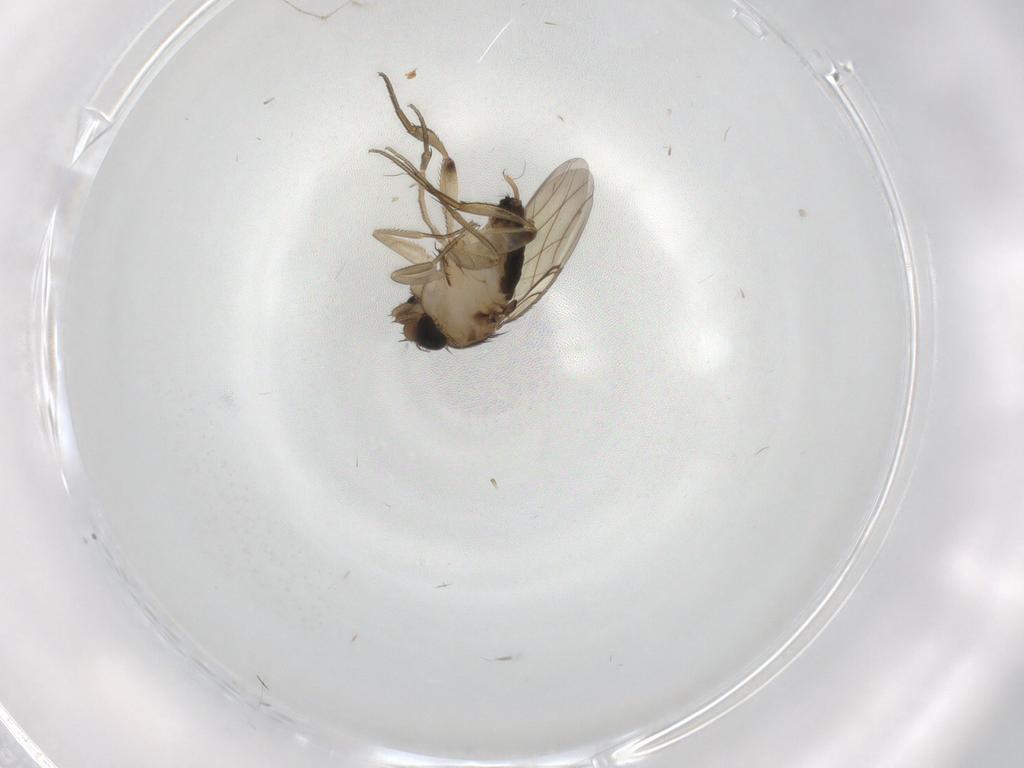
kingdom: Animalia
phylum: Arthropoda
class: Insecta
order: Diptera
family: Phoridae
